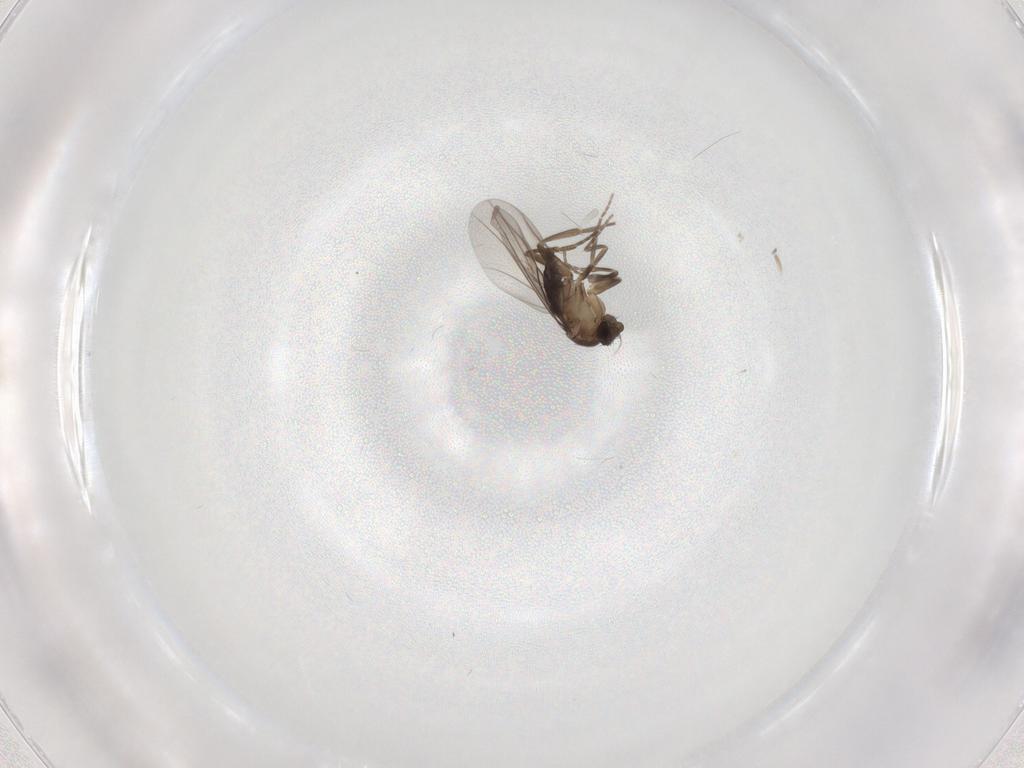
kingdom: Animalia
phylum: Arthropoda
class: Insecta
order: Diptera
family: Phoridae
